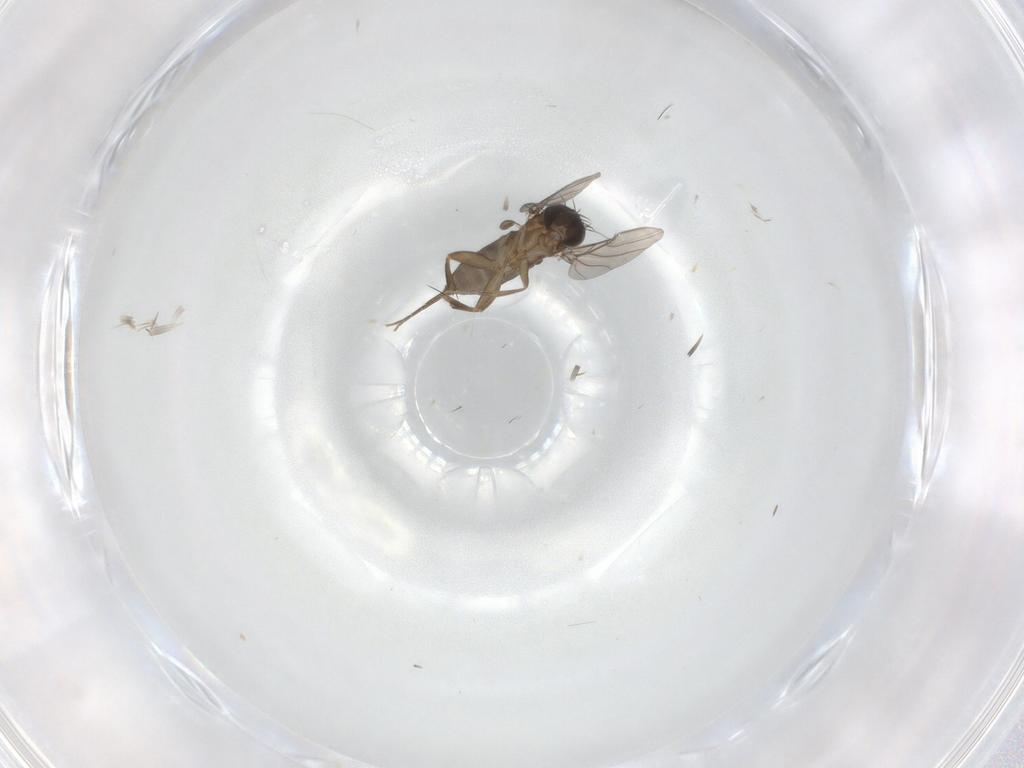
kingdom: Animalia
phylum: Arthropoda
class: Insecta
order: Diptera
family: Phoridae
